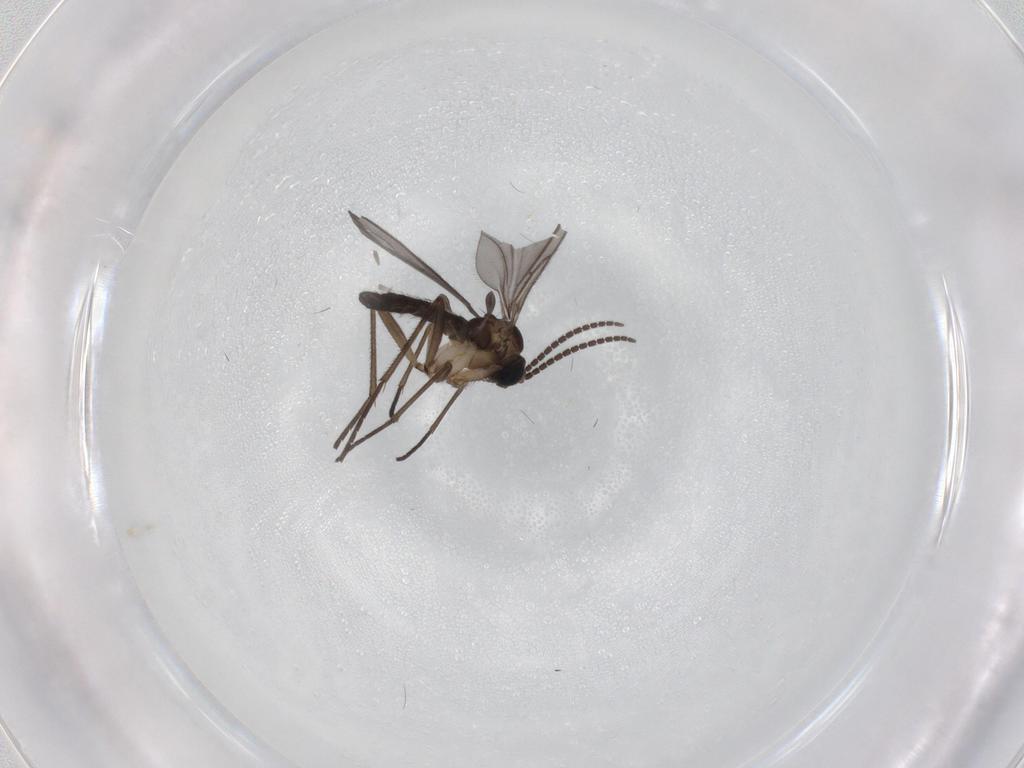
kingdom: Animalia
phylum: Arthropoda
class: Insecta
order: Diptera
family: Sciaridae
